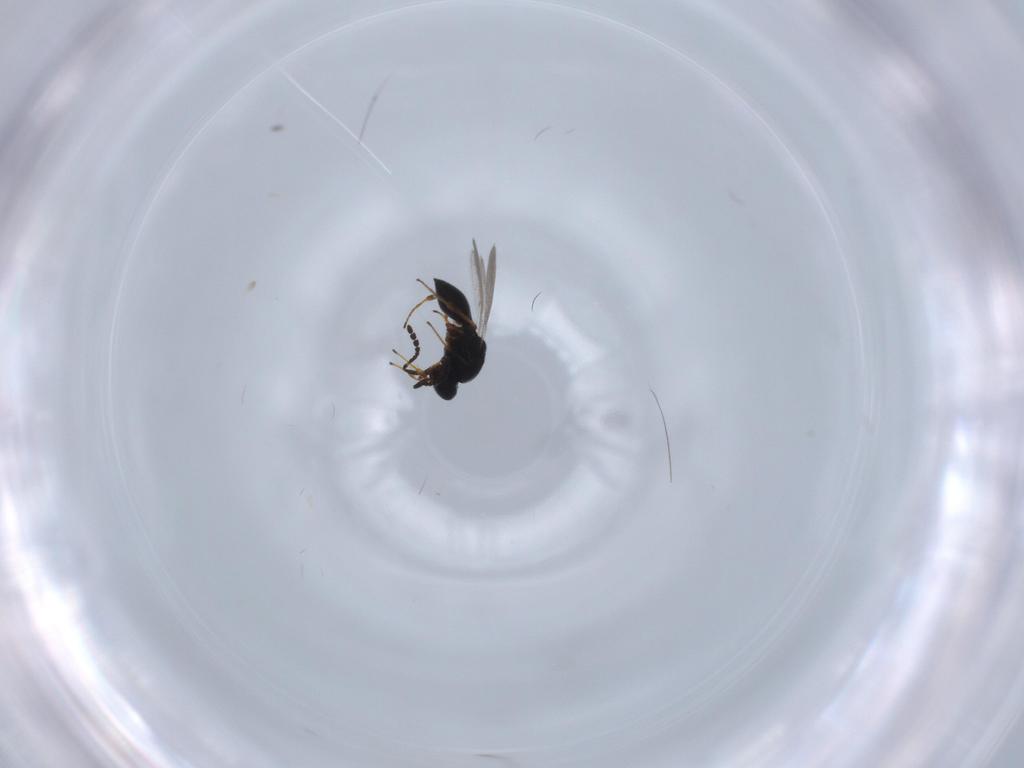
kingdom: Animalia
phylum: Arthropoda
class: Insecta
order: Hymenoptera
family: Platygastridae
